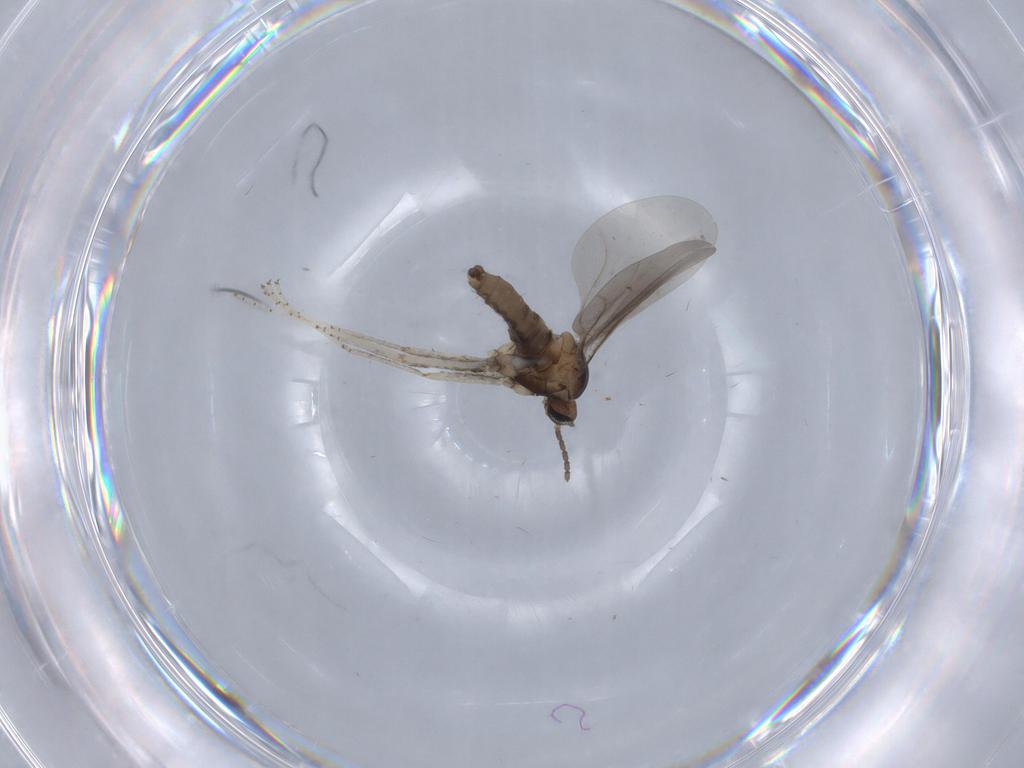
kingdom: Animalia
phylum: Arthropoda
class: Insecta
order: Diptera
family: Cecidomyiidae
